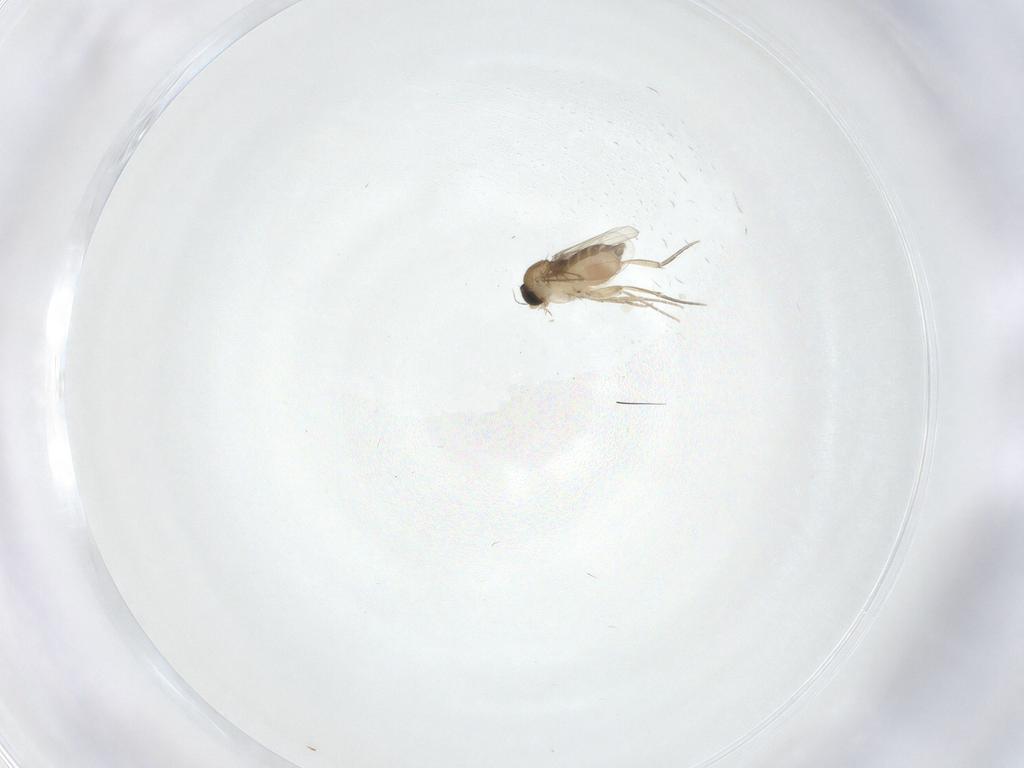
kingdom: Animalia
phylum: Arthropoda
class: Insecta
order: Diptera
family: Phoridae
